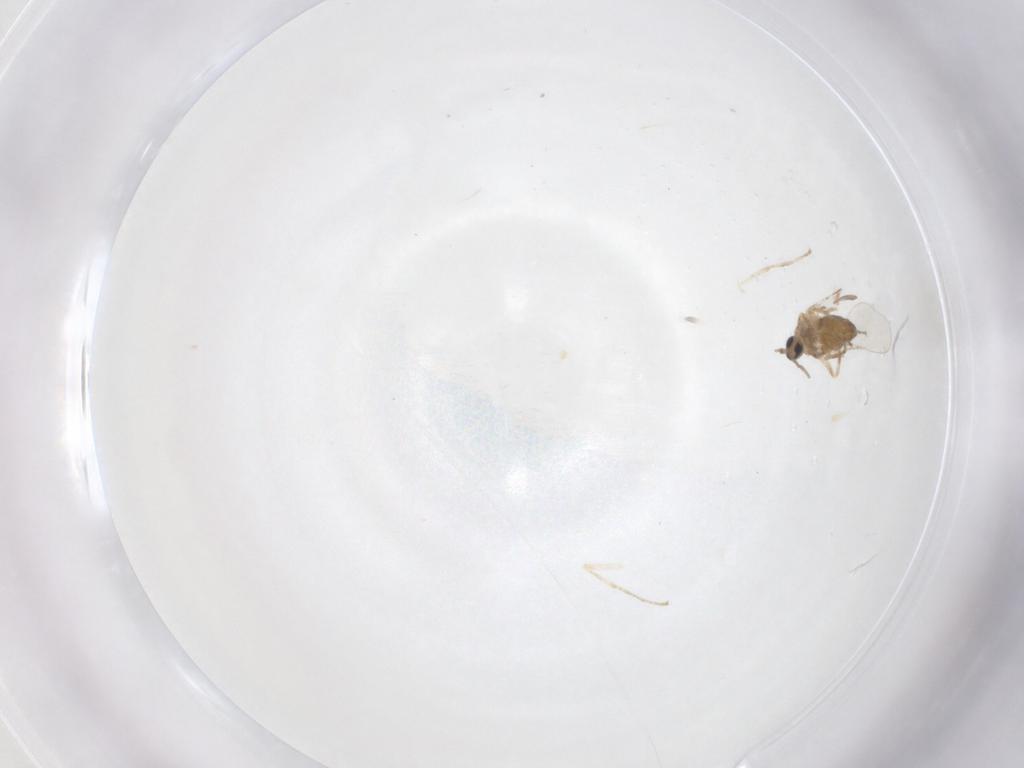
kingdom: Animalia
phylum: Arthropoda
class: Insecta
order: Diptera
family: Cecidomyiidae
